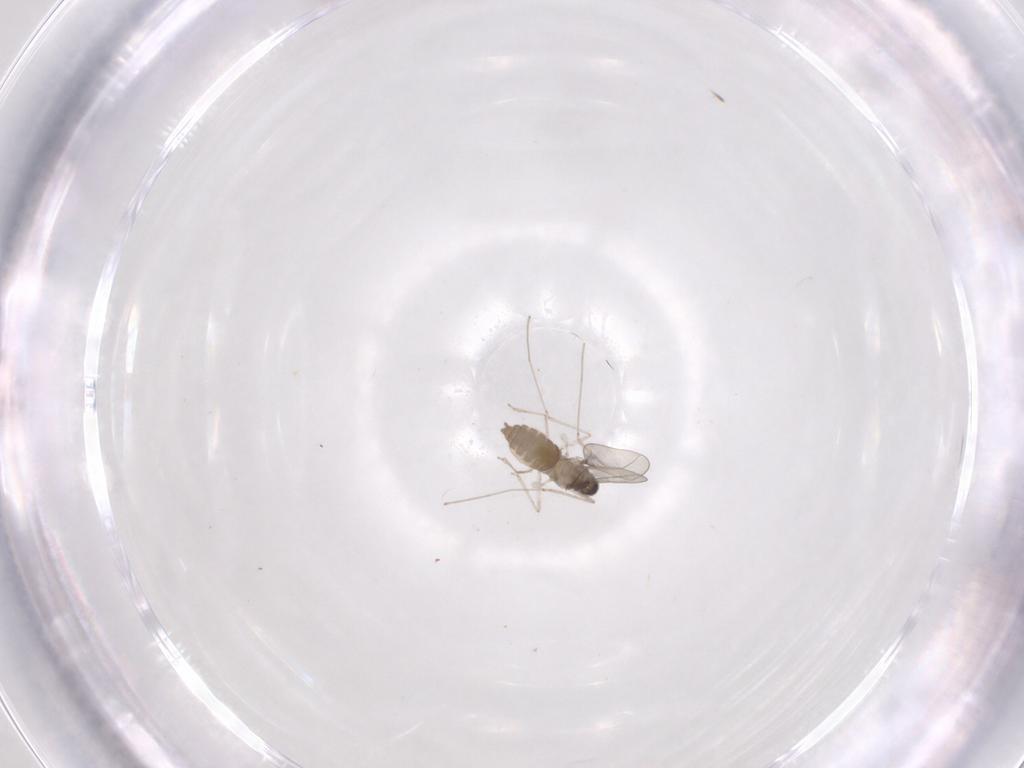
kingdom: Animalia
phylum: Arthropoda
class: Insecta
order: Diptera
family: Cecidomyiidae
